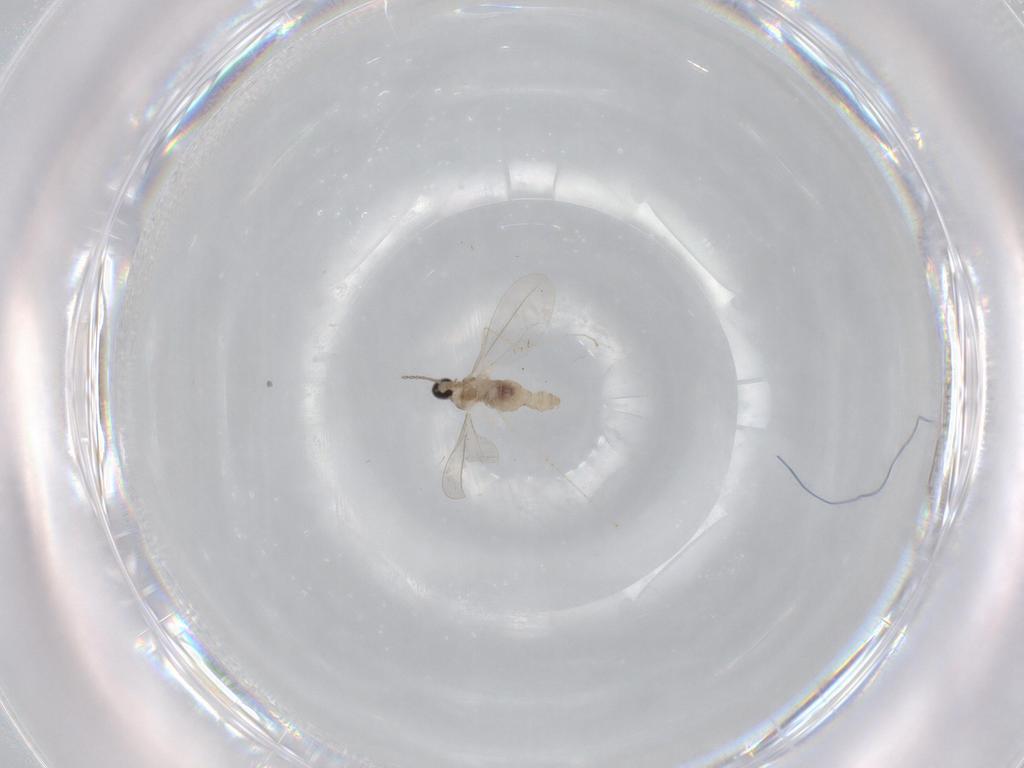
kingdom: Animalia
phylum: Arthropoda
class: Insecta
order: Diptera
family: Cecidomyiidae
